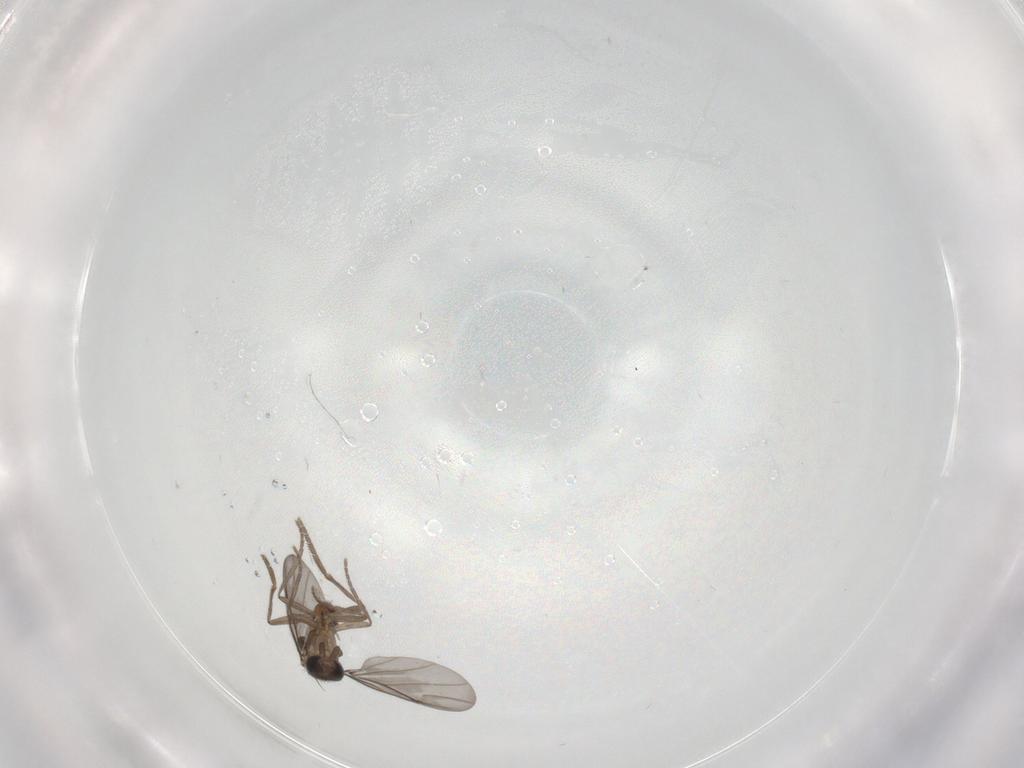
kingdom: Animalia
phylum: Arthropoda
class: Insecta
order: Diptera
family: Phoridae
